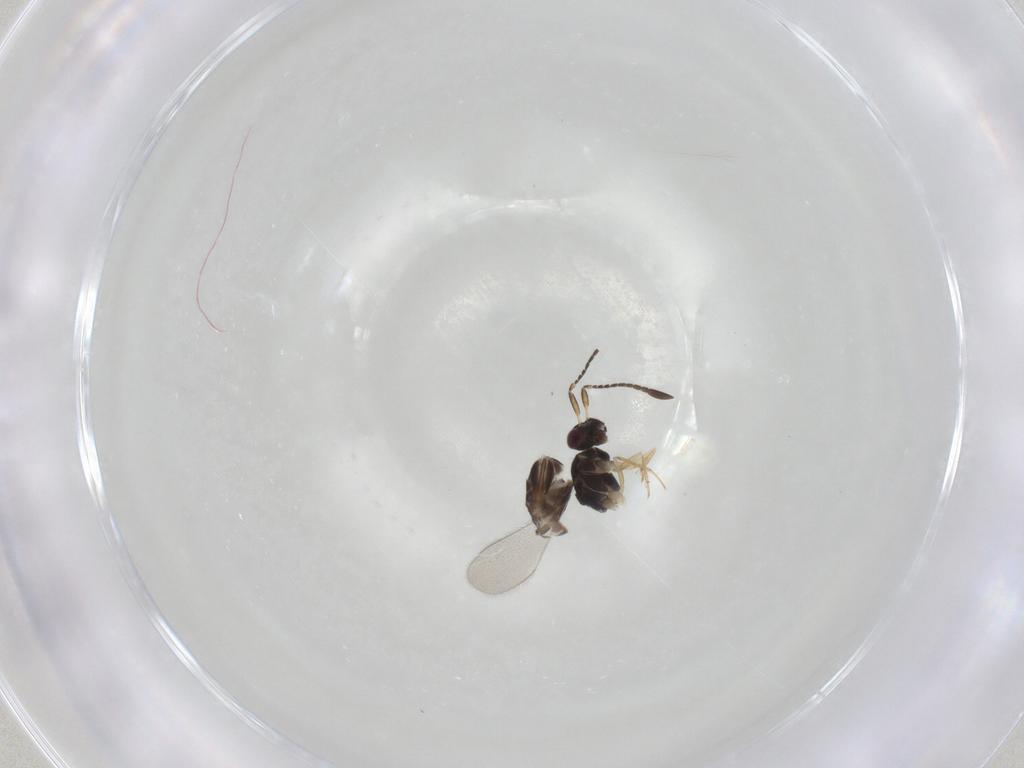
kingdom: Animalia
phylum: Arthropoda
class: Insecta
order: Hymenoptera
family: Mymaridae
